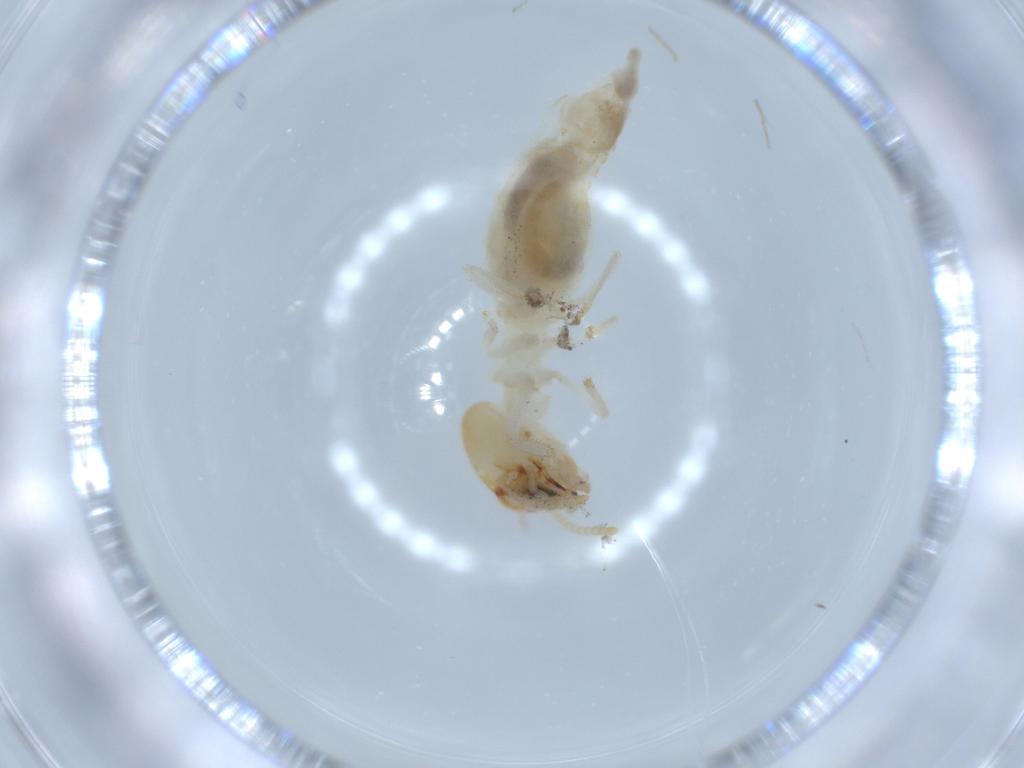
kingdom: Animalia
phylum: Arthropoda
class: Insecta
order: Blattodea
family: Termitidae
